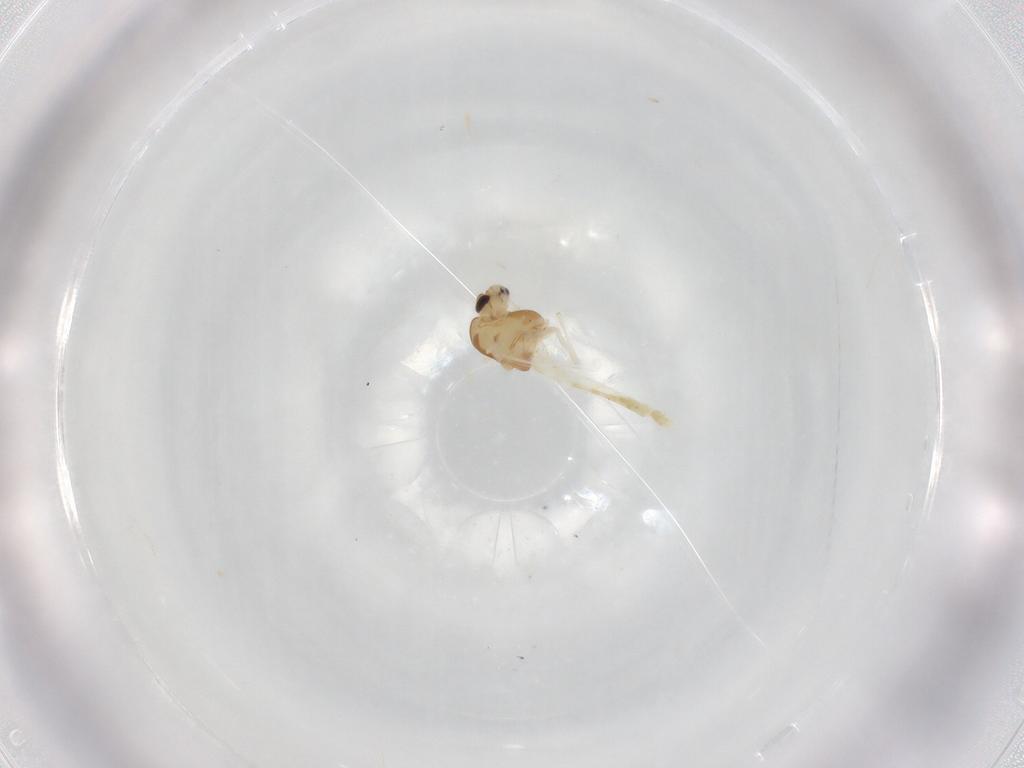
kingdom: Animalia
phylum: Arthropoda
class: Insecta
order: Diptera
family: Chironomidae
